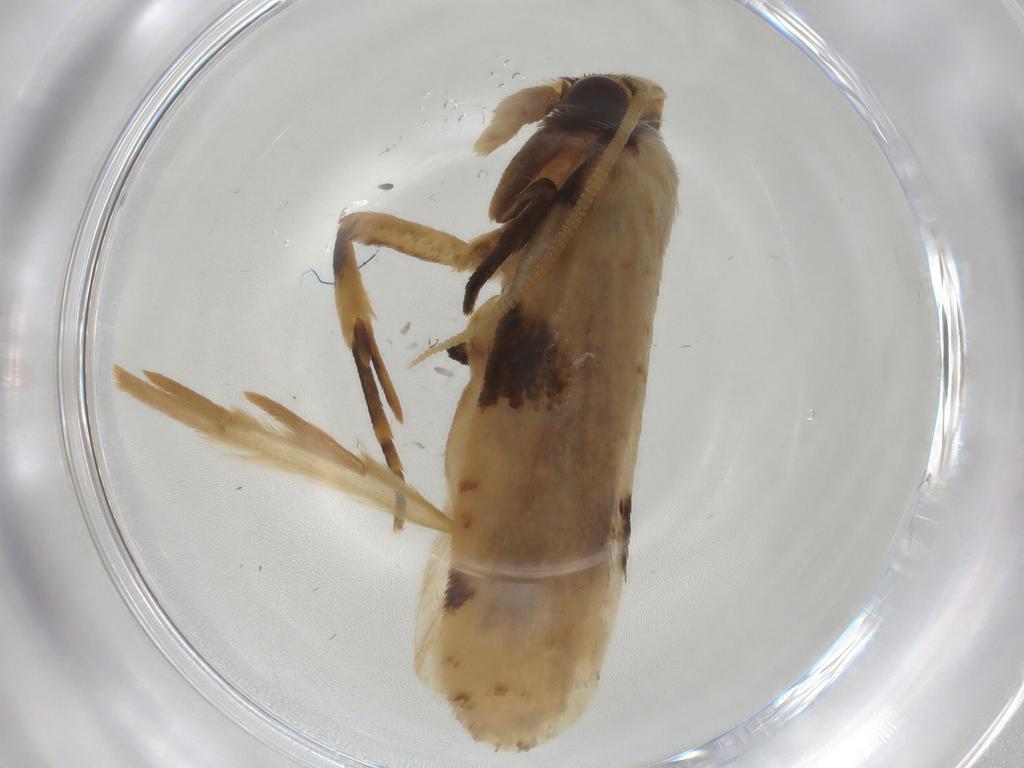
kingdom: Animalia
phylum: Arthropoda
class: Insecta
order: Lepidoptera
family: Tineidae
